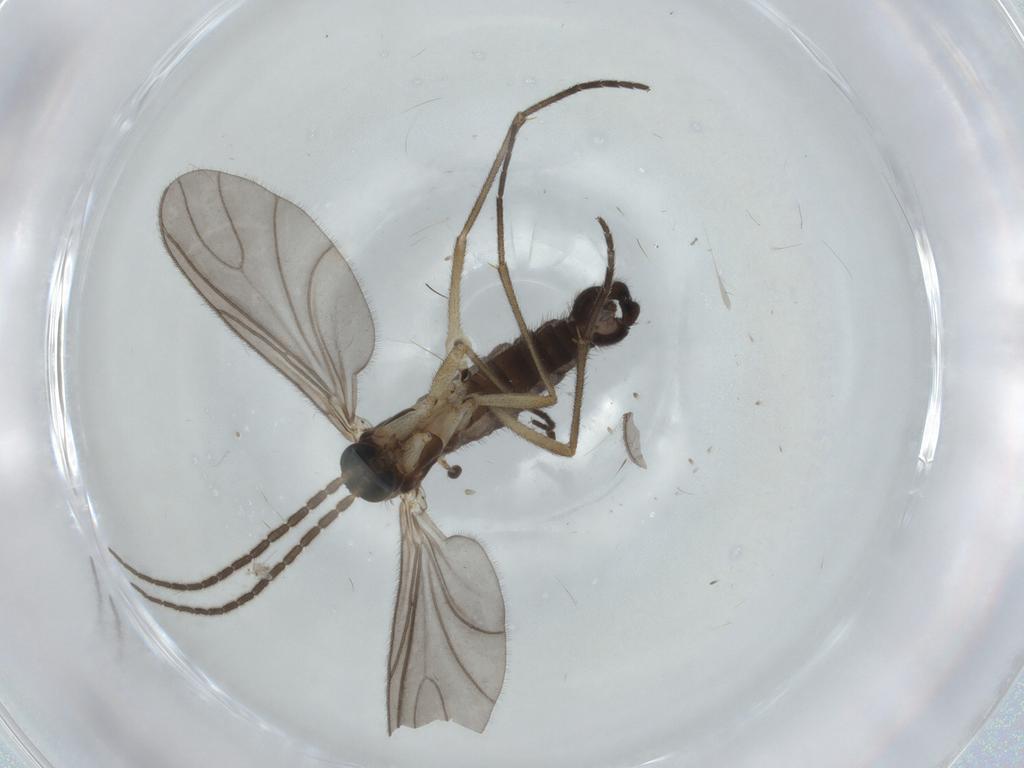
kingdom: Animalia
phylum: Arthropoda
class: Insecta
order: Diptera
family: Sciaridae
